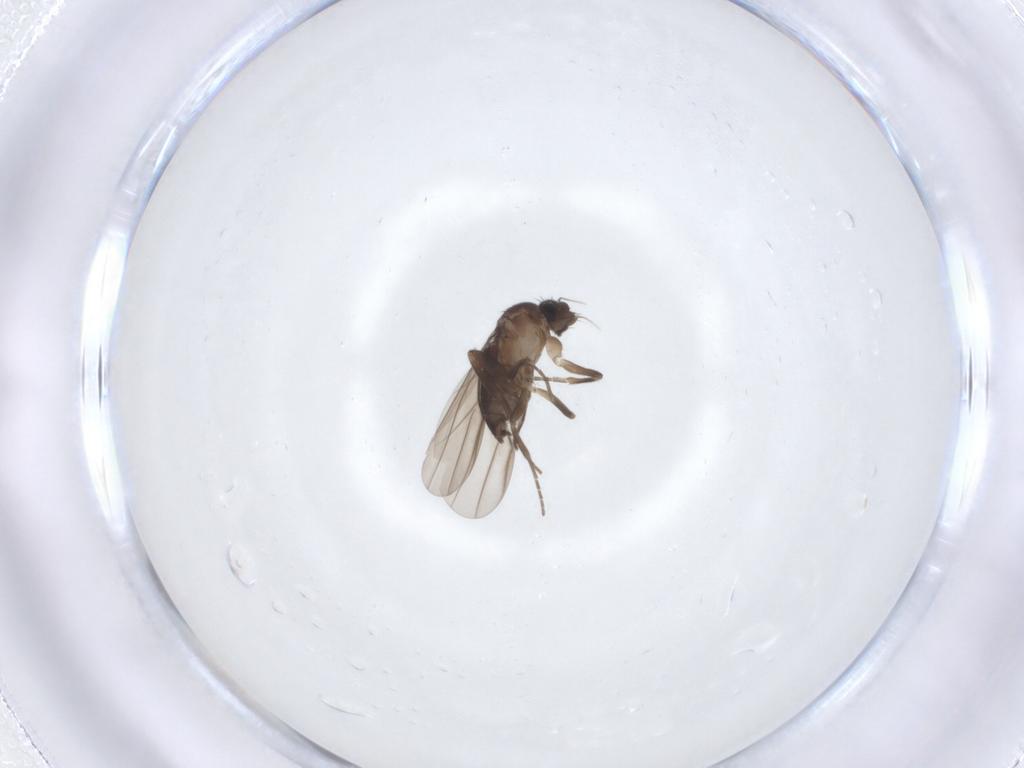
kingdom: Animalia
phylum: Arthropoda
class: Insecta
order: Diptera
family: Phoridae
